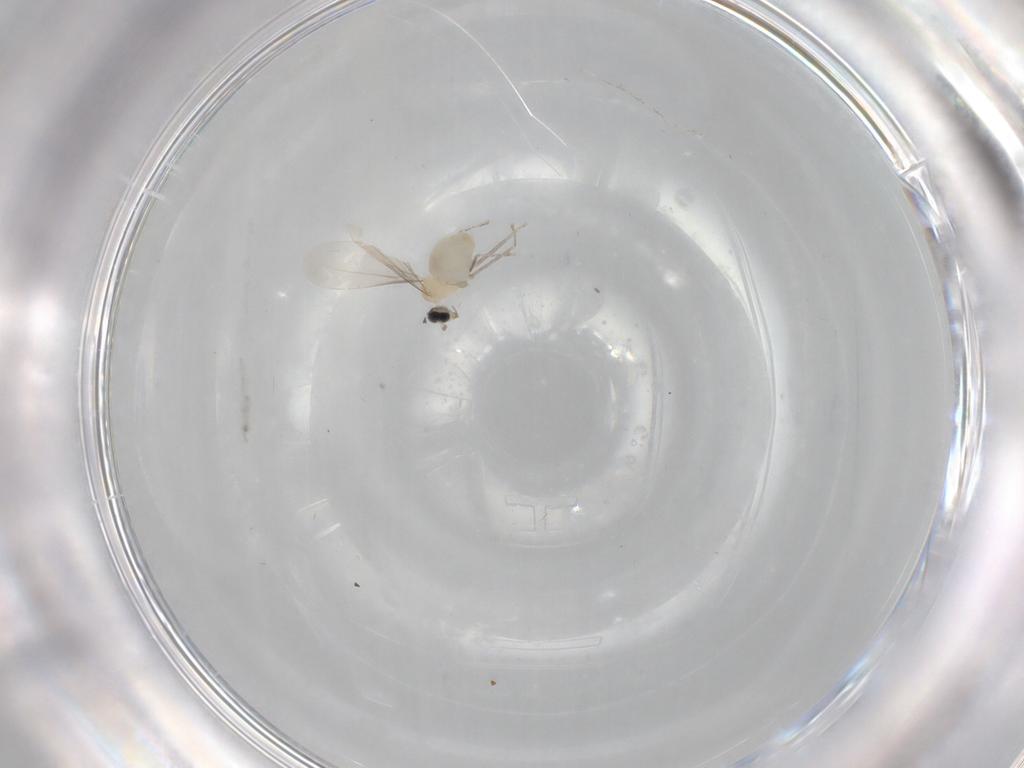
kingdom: Animalia
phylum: Arthropoda
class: Insecta
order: Diptera
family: Cecidomyiidae
